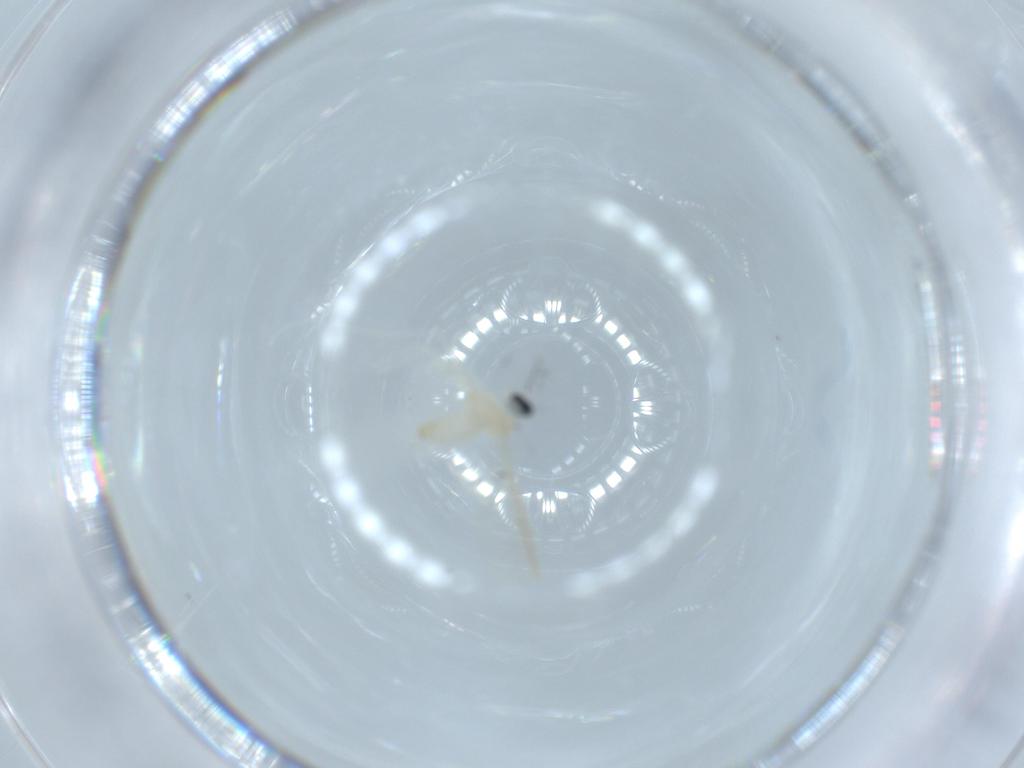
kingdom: Animalia
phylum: Arthropoda
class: Insecta
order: Diptera
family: Cecidomyiidae
